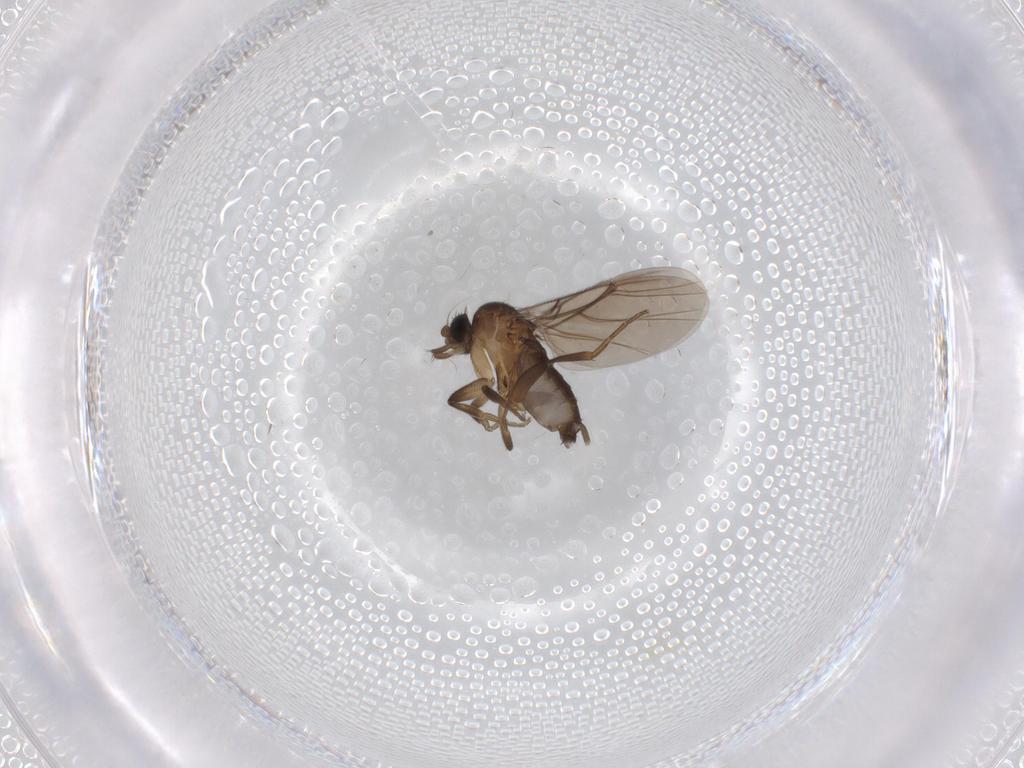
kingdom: Animalia
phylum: Arthropoda
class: Insecta
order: Diptera
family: Phoridae
